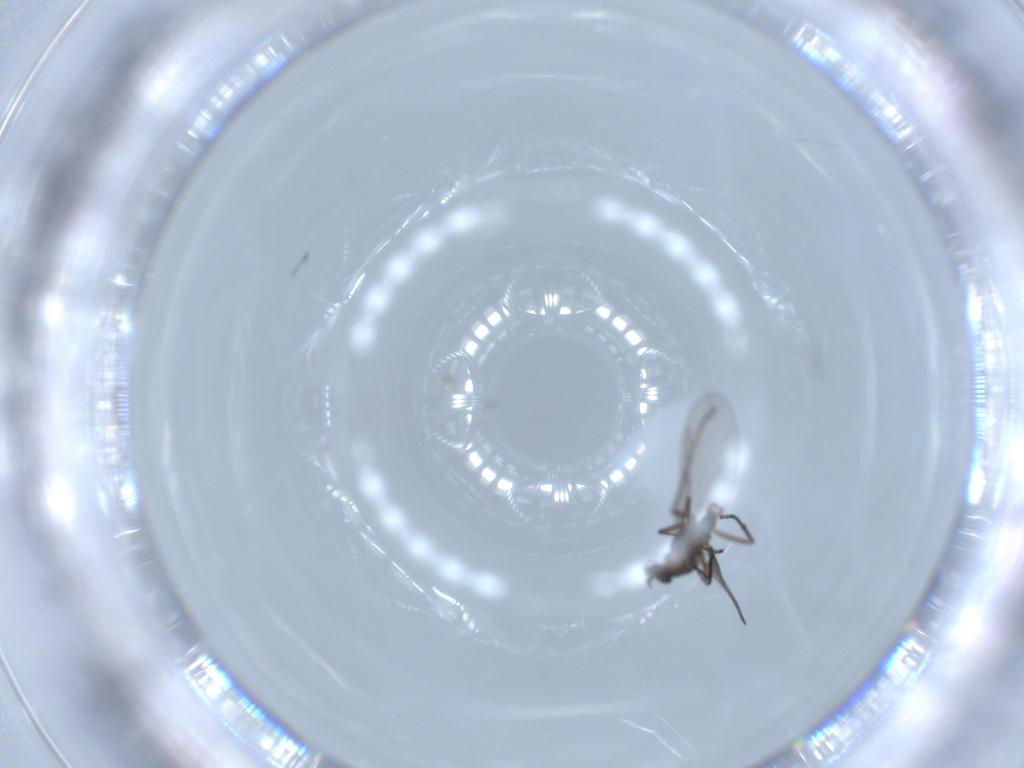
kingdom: Animalia
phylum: Arthropoda
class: Insecta
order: Diptera
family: Cecidomyiidae
